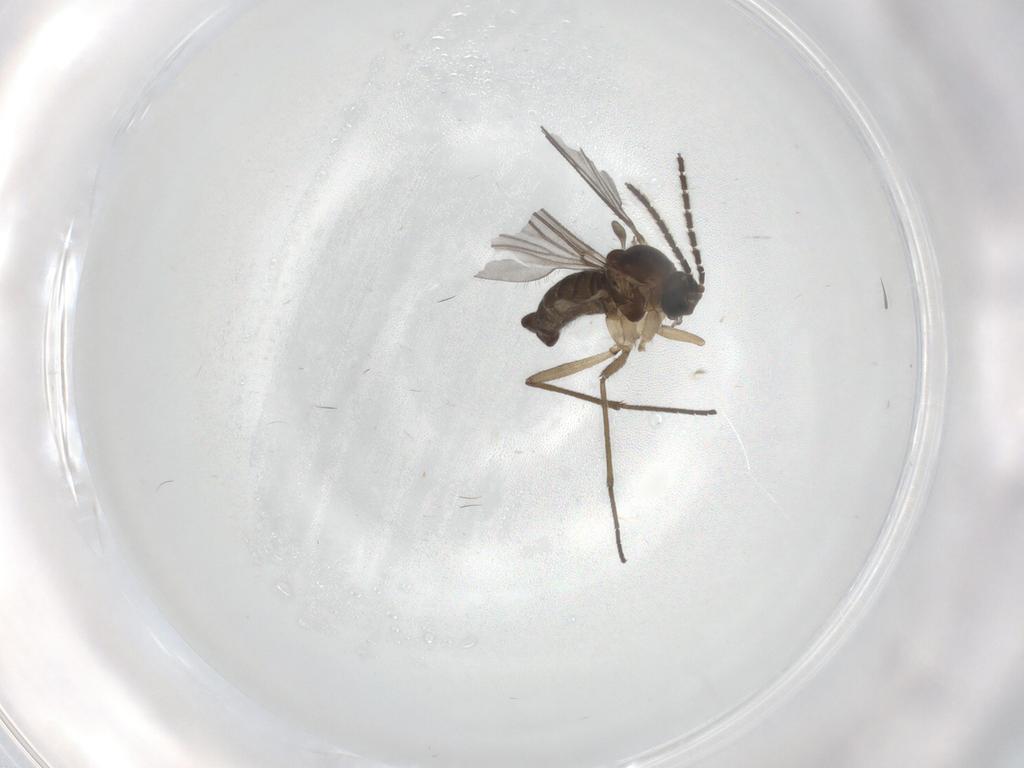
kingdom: Animalia
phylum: Arthropoda
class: Insecta
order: Diptera
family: Sciaridae
